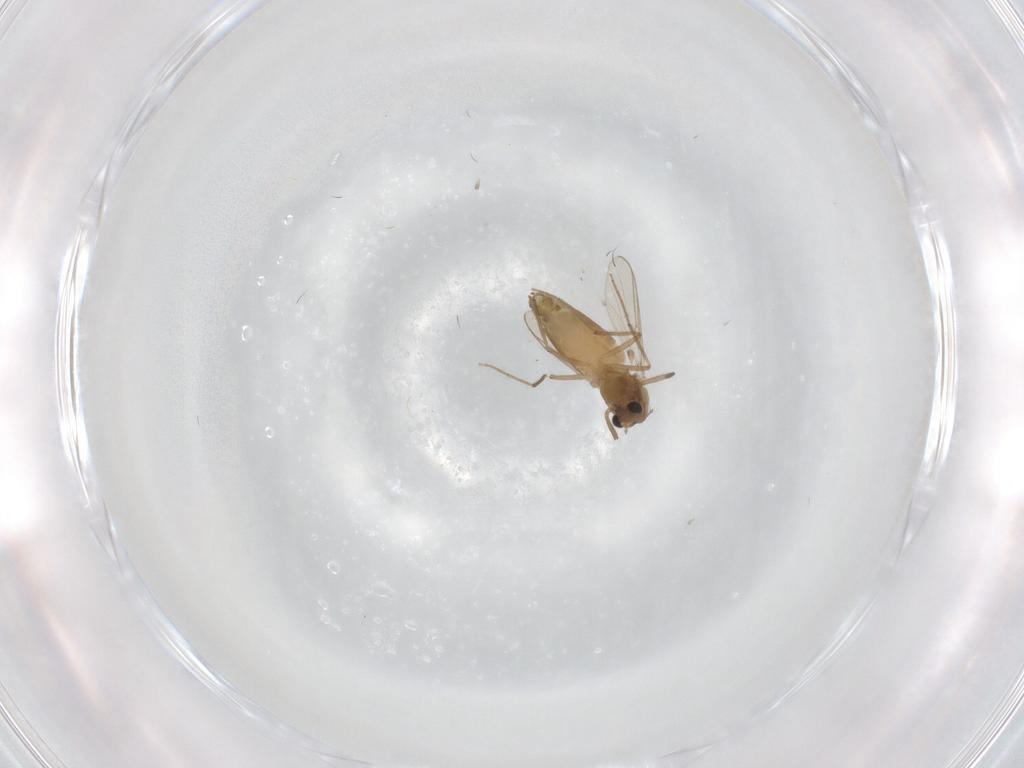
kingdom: Animalia
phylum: Arthropoda
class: Insecta
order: Diptera
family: Chironomidae
